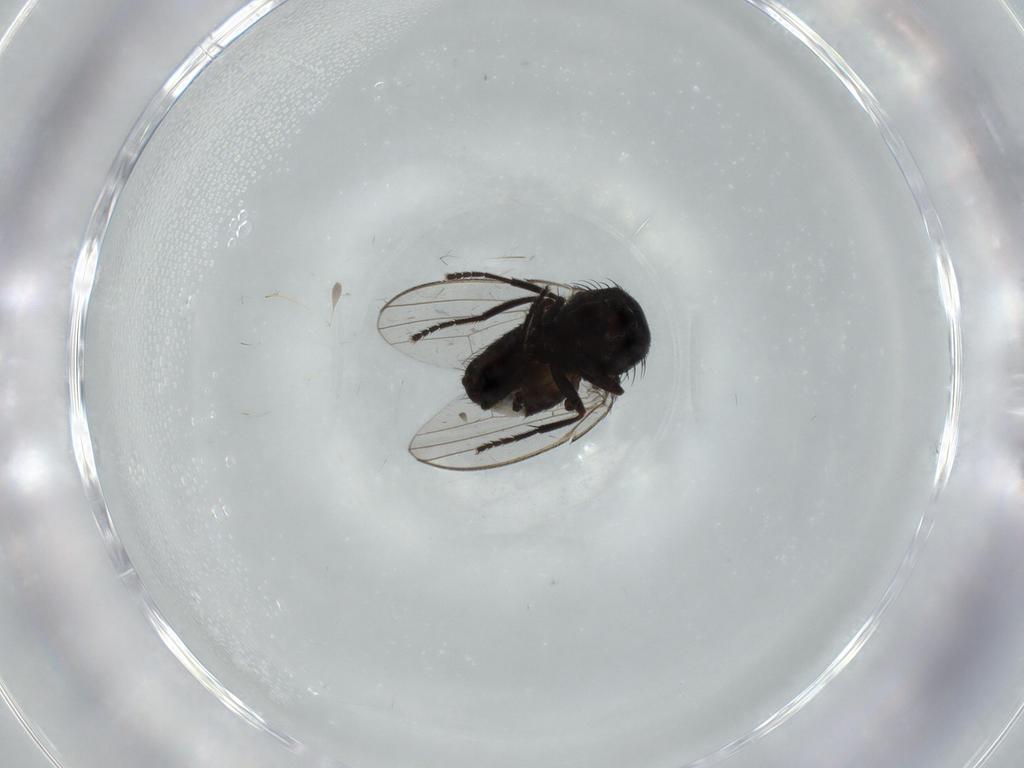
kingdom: Animalia
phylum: Arthropoda
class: Insecta
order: Diptera
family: Milichiidae
